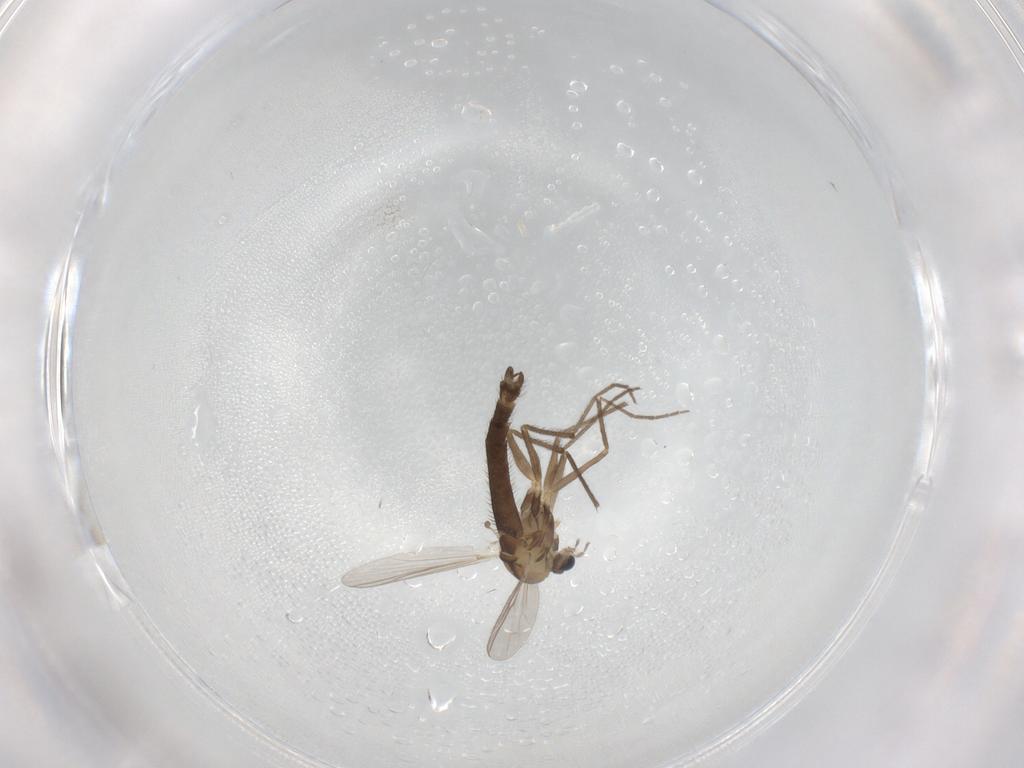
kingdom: Animalia
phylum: Arthropoda
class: Insecta
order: Diptera
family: Chironomidae
